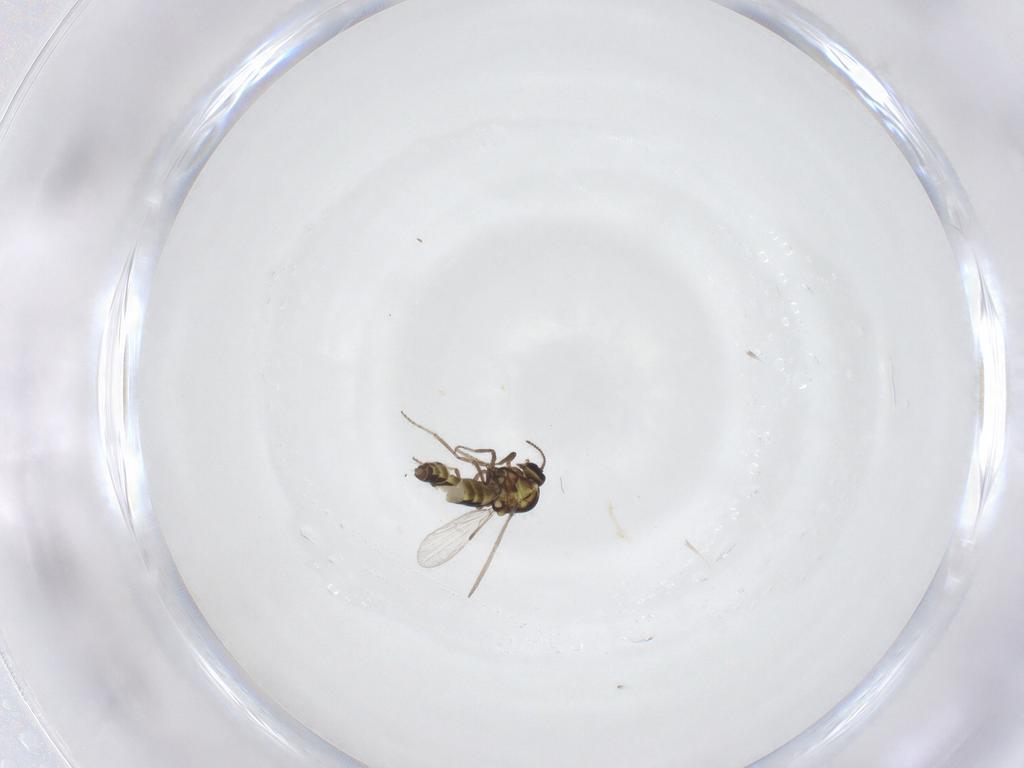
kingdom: Animalia
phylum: Arthropoda
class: Insecta
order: Diptera
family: Ceratopogonidae
